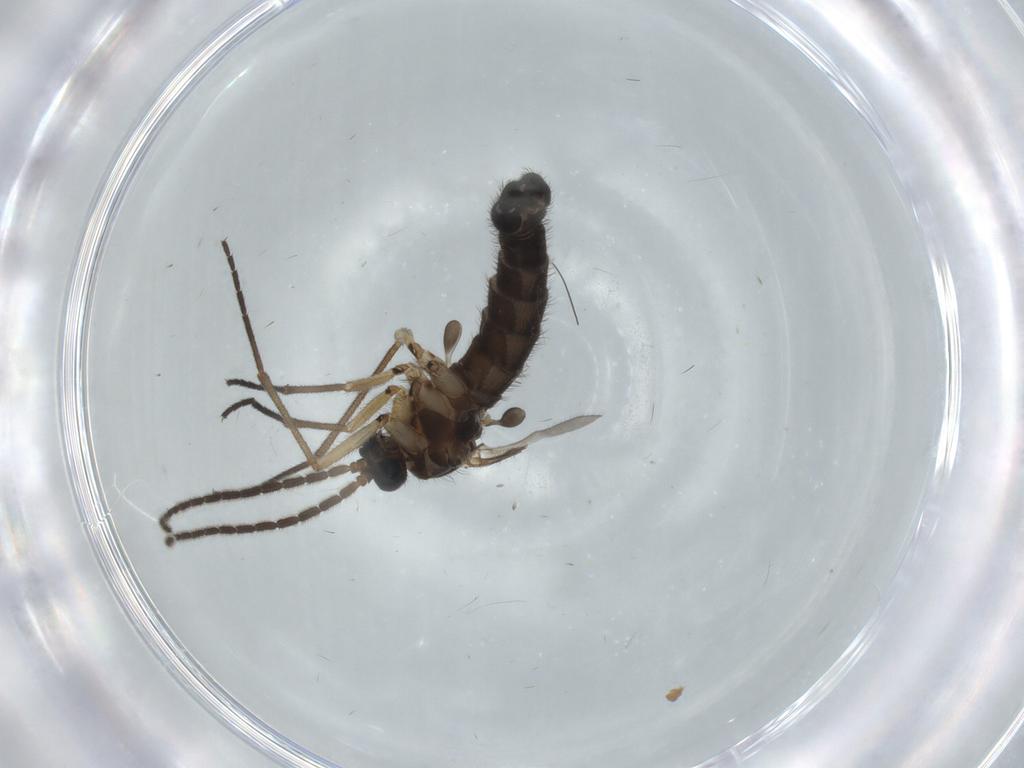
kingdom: Animalia
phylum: Arthropoda
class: Insecta
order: Diptera
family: Sciaridae
